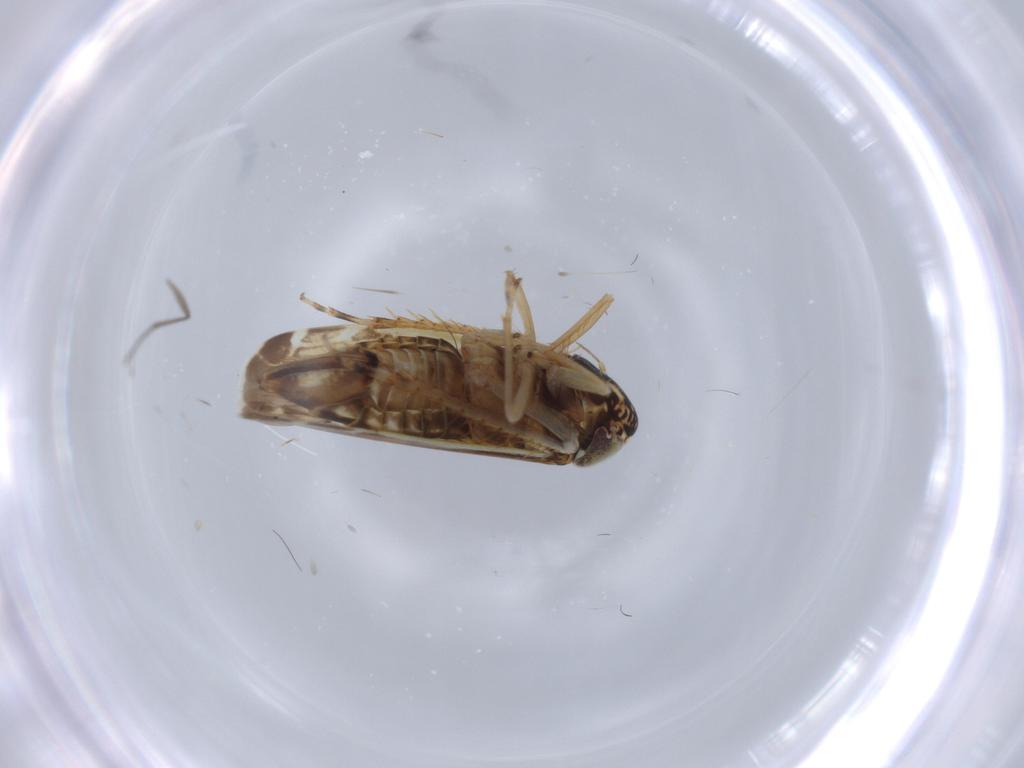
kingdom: Animalia
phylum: Arthropoda
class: Insecta
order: Hemiptera
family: Cicadellidae
